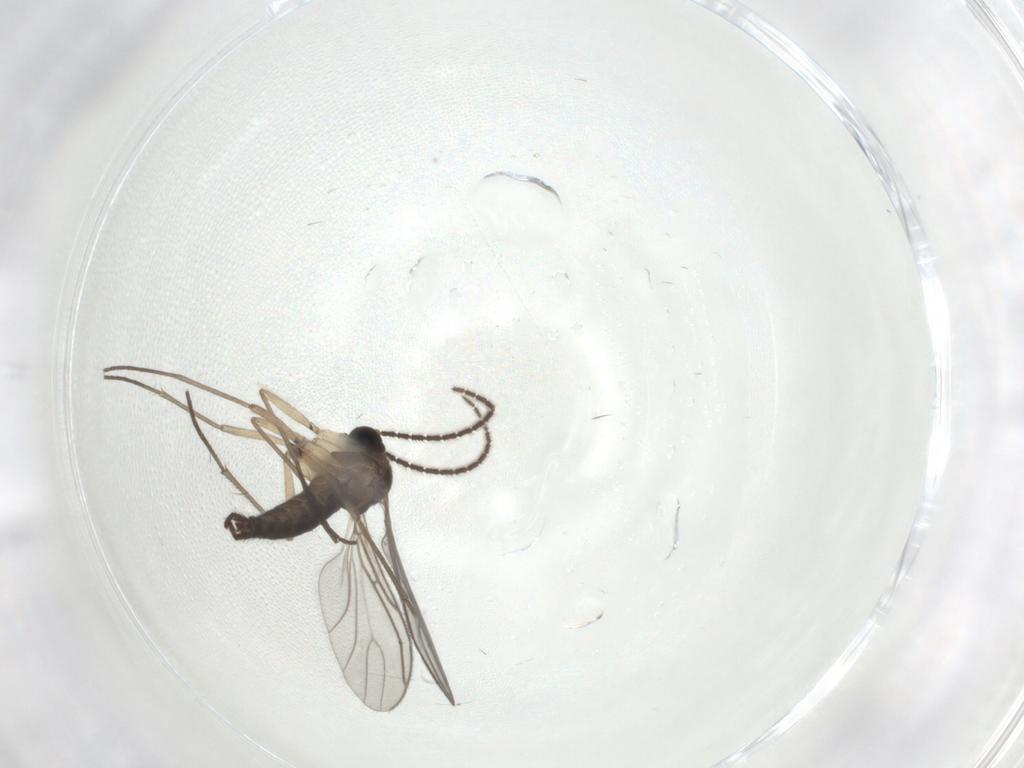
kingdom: Animalia
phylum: Arthropoda
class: Insecta
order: Diptera
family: Sciaridae
